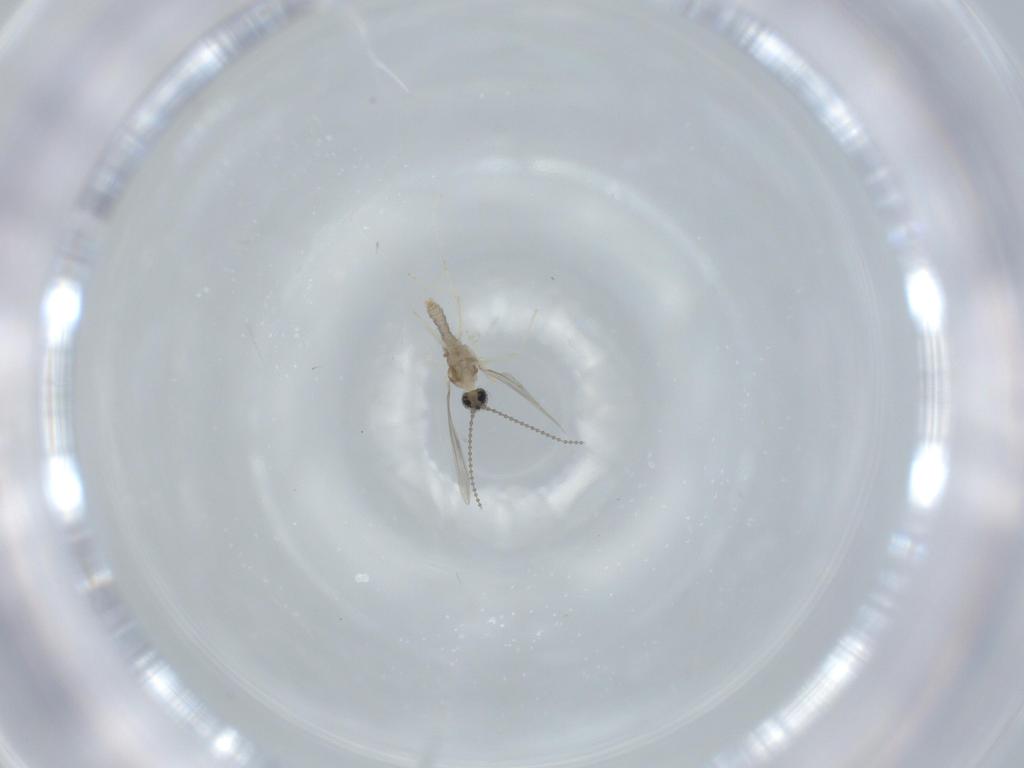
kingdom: Animalia
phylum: Arthropoda
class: Insecta
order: Diptera
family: Cecidomyiidae
